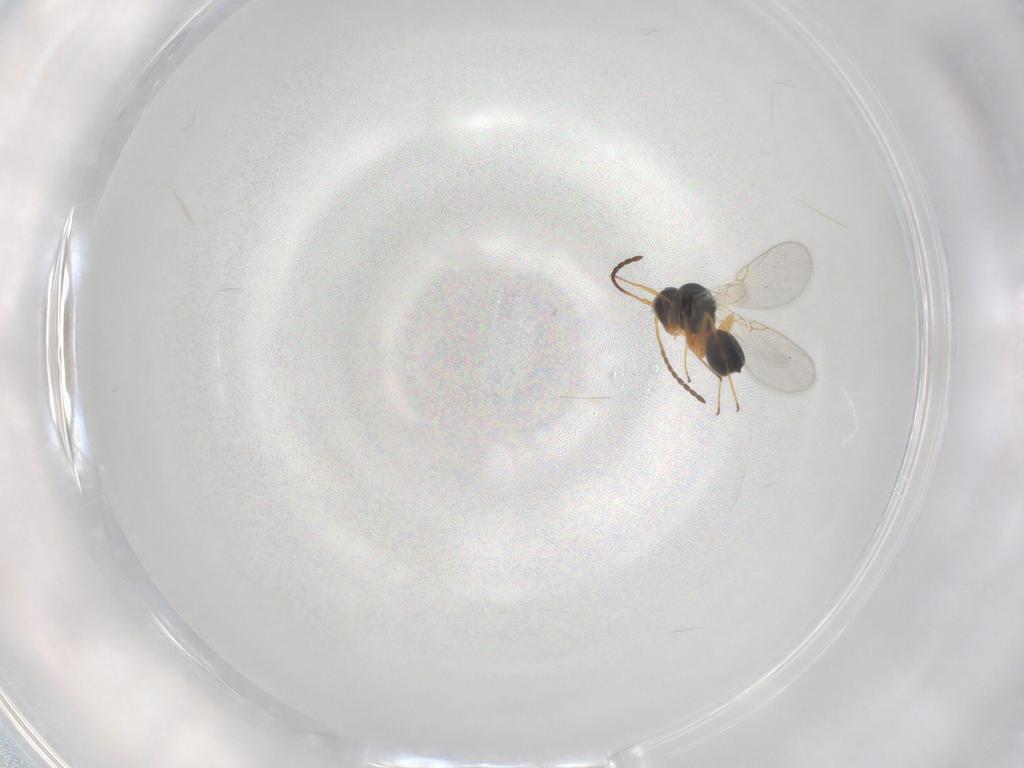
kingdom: Animalia
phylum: Arthropoda
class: Insecta
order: Hymenoptera
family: Figitidae
